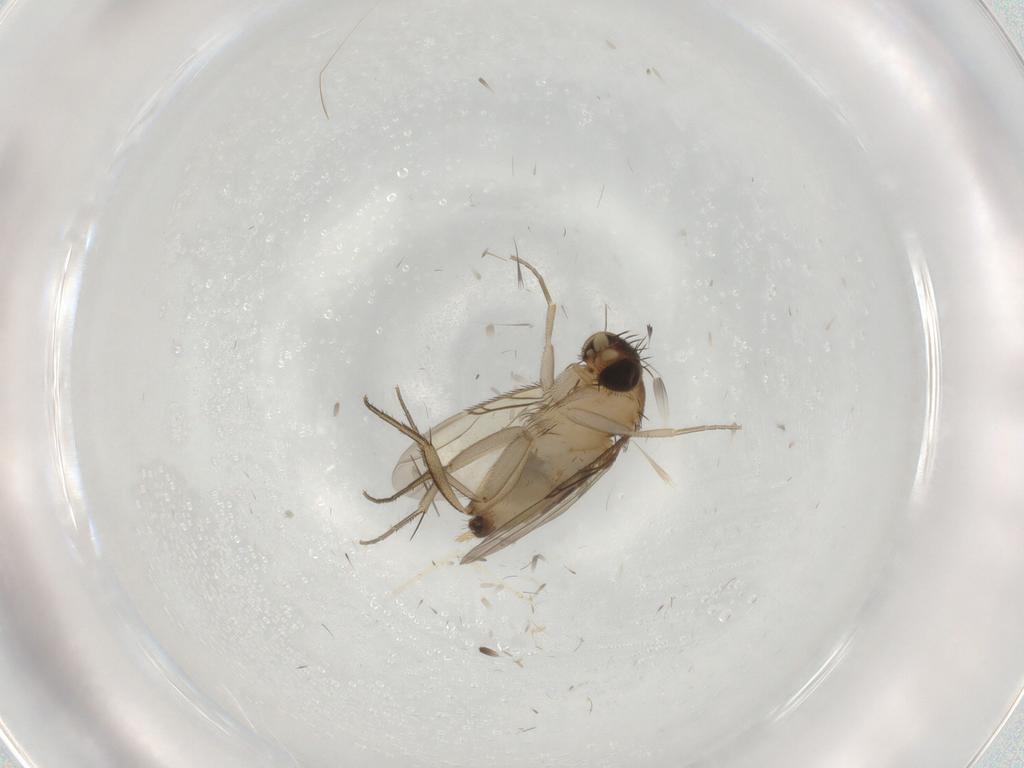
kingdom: Animalia
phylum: Arthropoda
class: Insecta
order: Diptera
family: Phoridae
